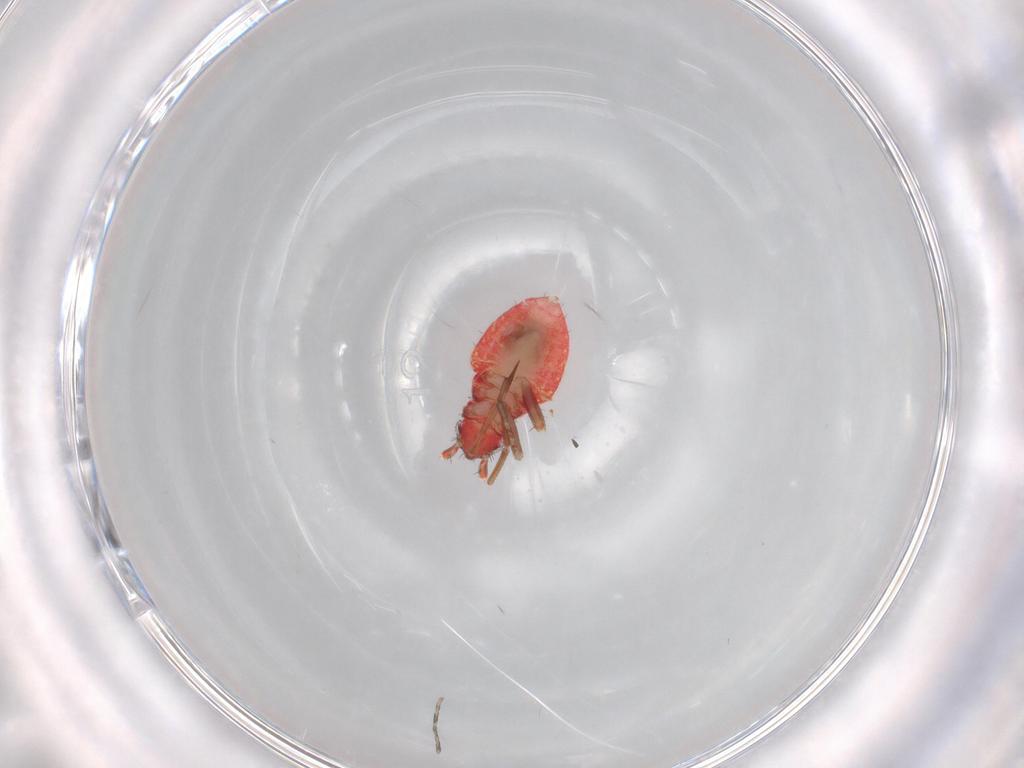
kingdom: Animalia
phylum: Arthropoda
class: Insecta
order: Hemiptera
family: Miridae
